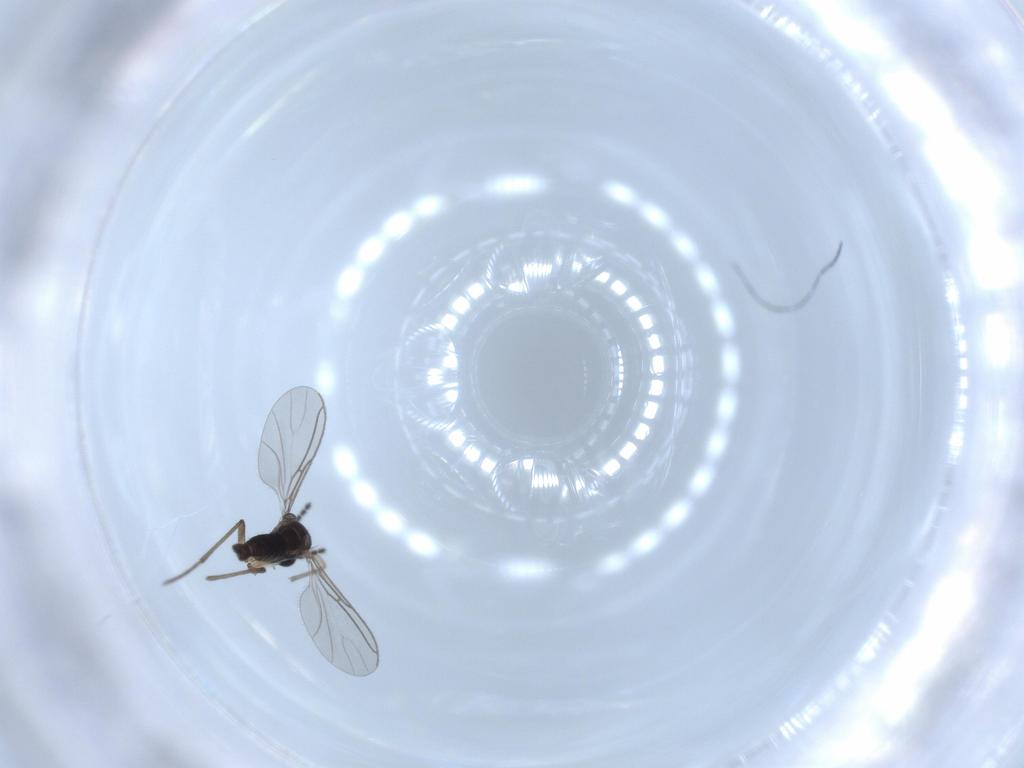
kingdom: Animalia
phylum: Arthropoda
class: Insecta
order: Diptera
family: Sciaridae
